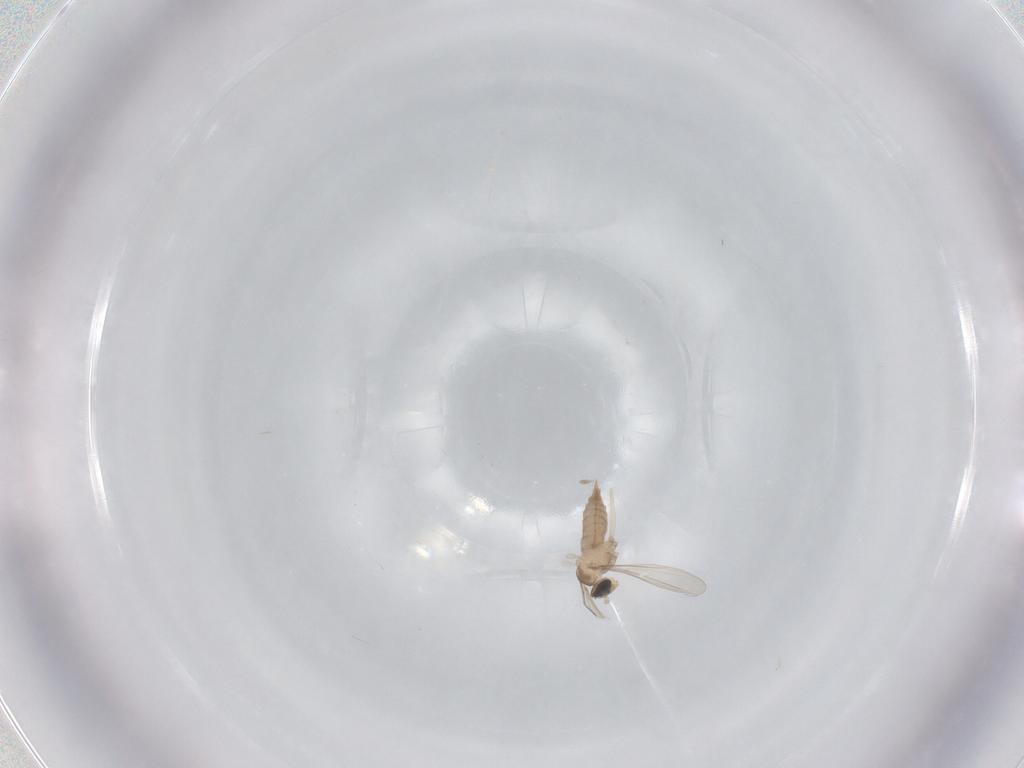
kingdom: Animalia
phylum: Arthropoda
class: Insecta
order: Diptera
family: Cecidomyiidae
